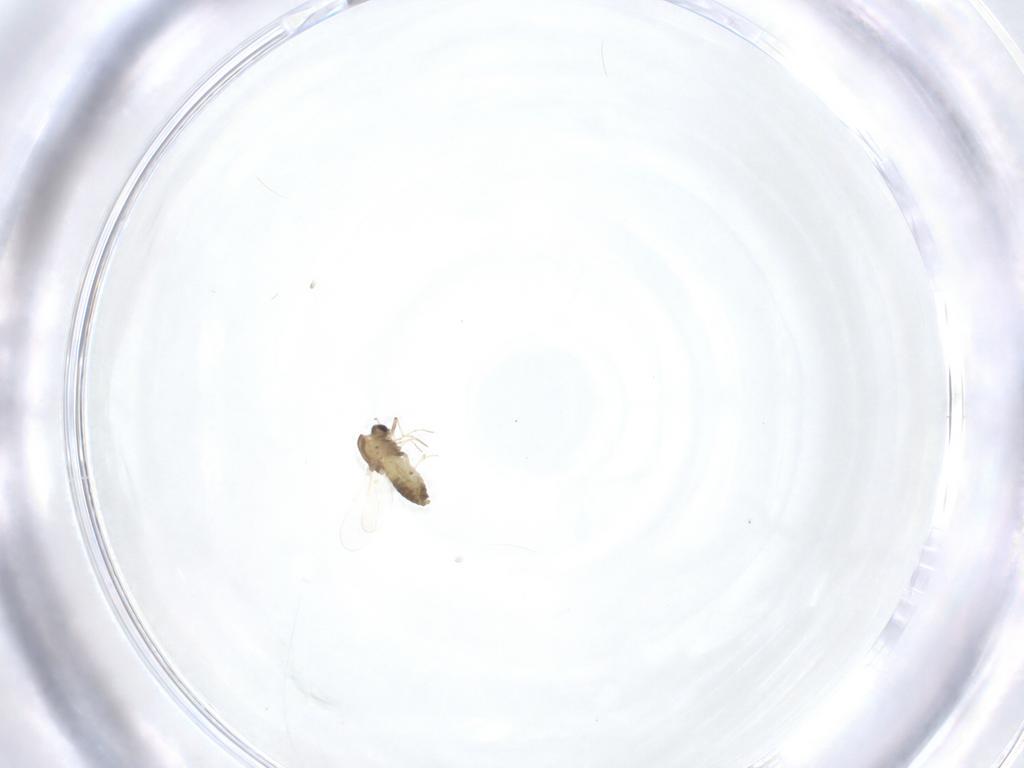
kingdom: Animalia
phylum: Arthropoda
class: Insecta
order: Diptera
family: Chironomidae
